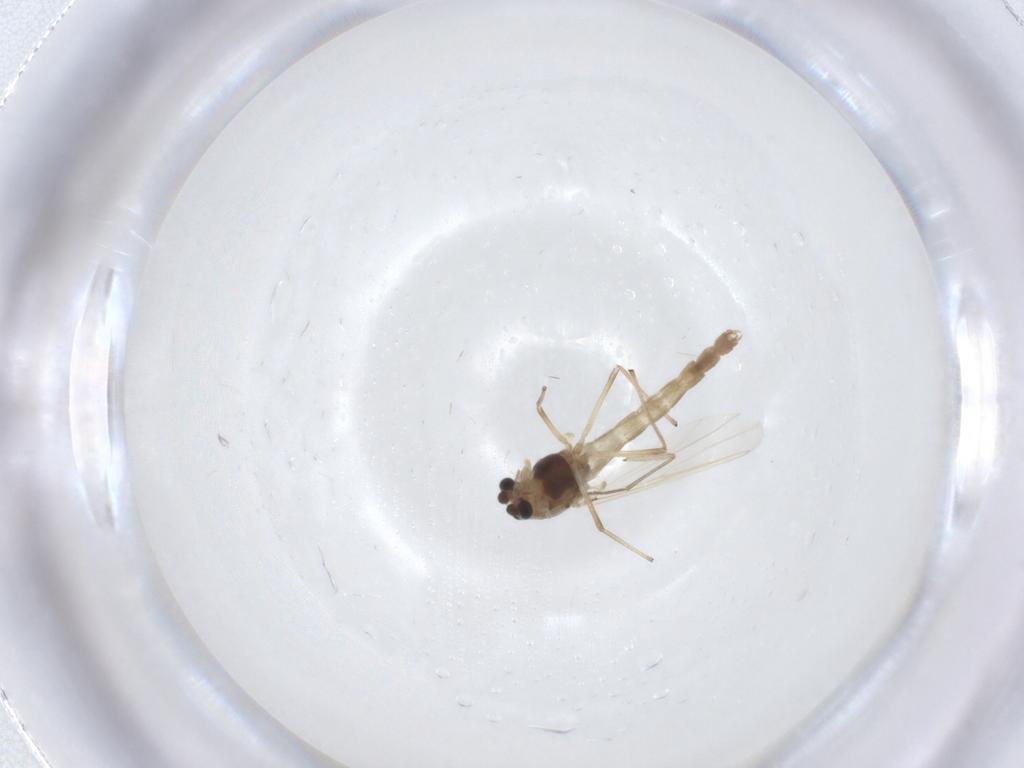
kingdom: Animalia
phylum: Arthropoda
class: Insecta
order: Diptera
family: Chironomidae
